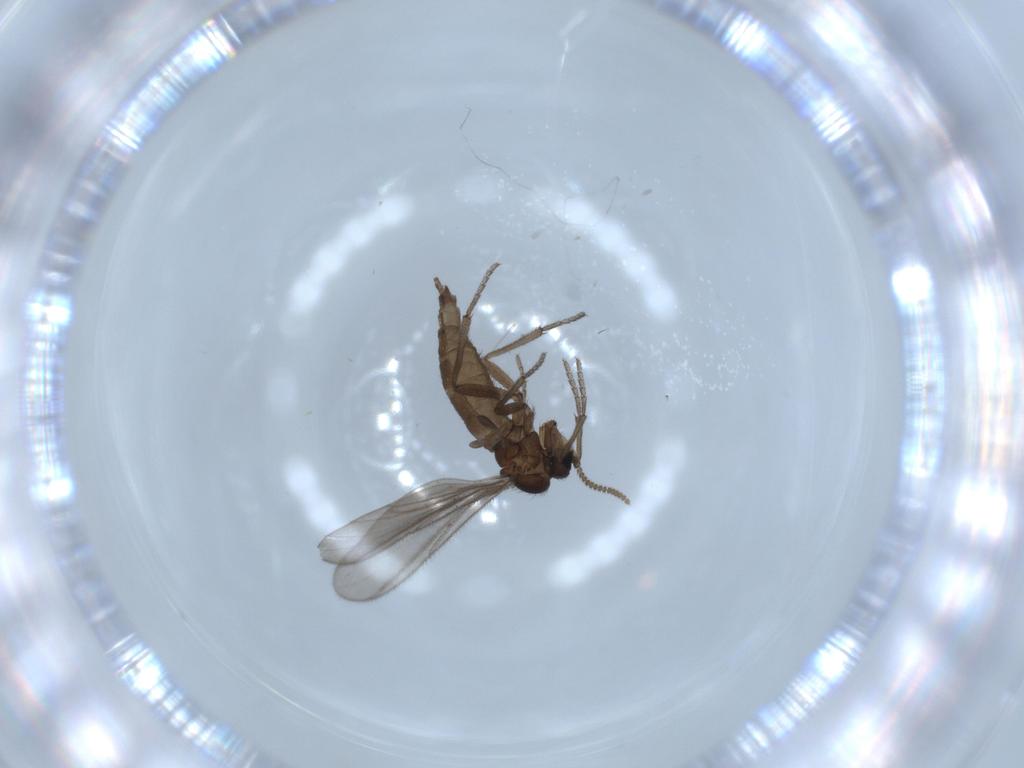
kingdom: Animalia
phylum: Arthropoda
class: Insecta
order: Diptera
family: Sciaridae
